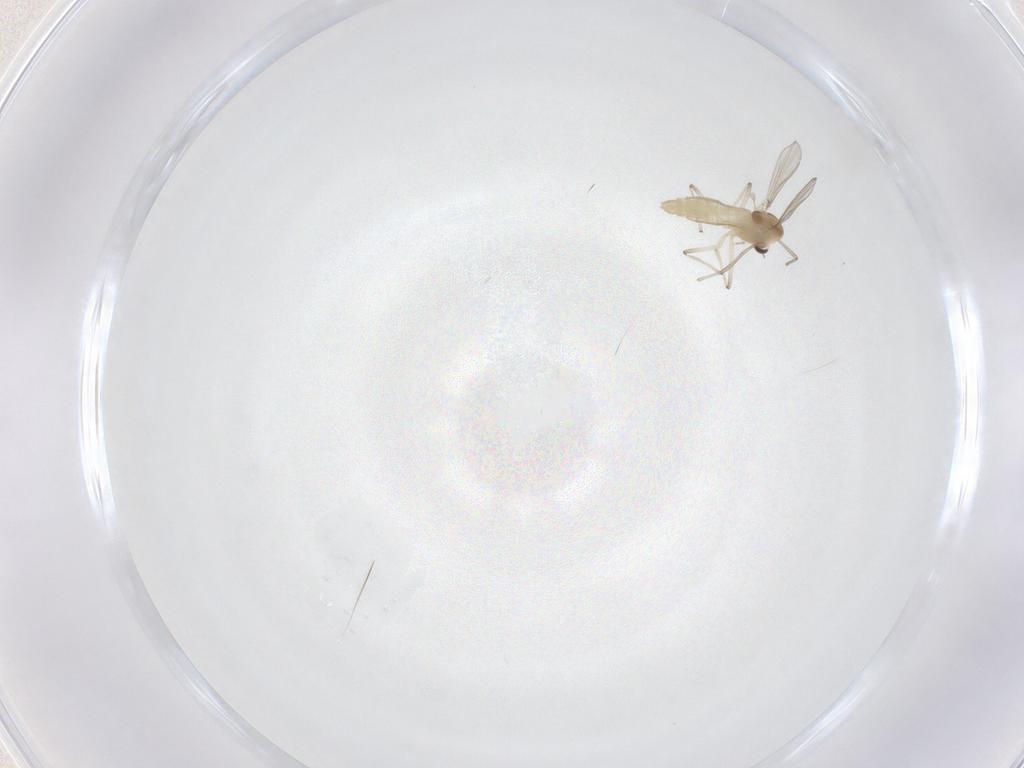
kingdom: Animalia
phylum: Arthropoda
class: Insecta
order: Diptera
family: Chironomidae
